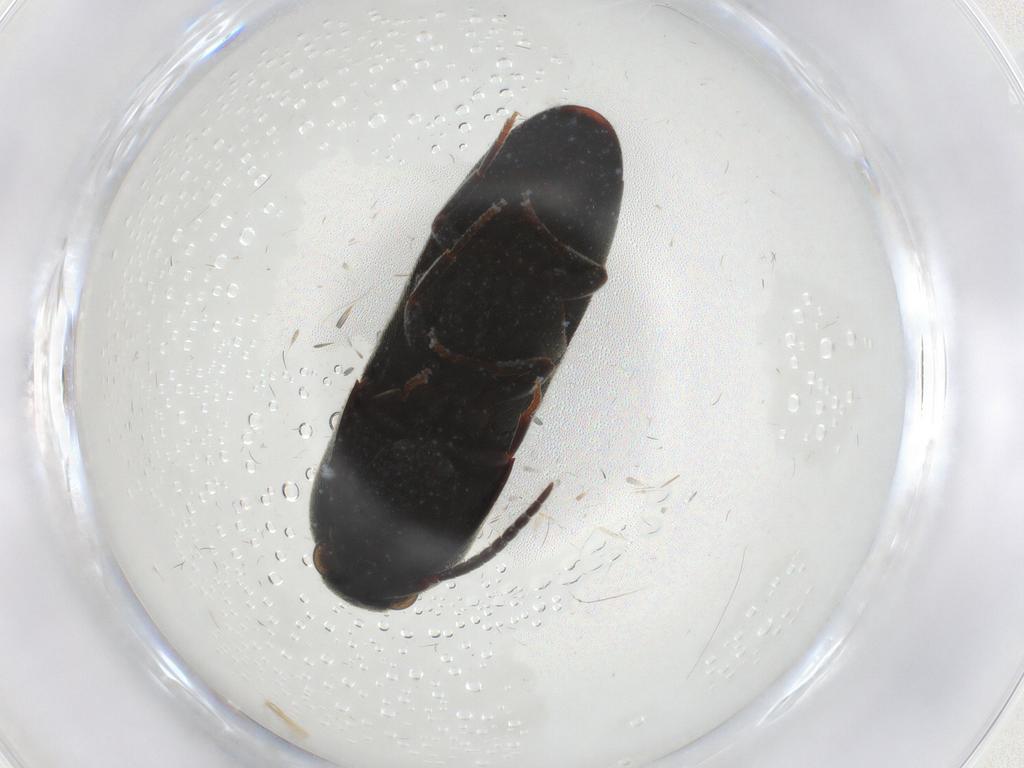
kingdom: Animalia
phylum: Arthropoda
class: Insecta
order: Coleoptera
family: Eucnemidae
